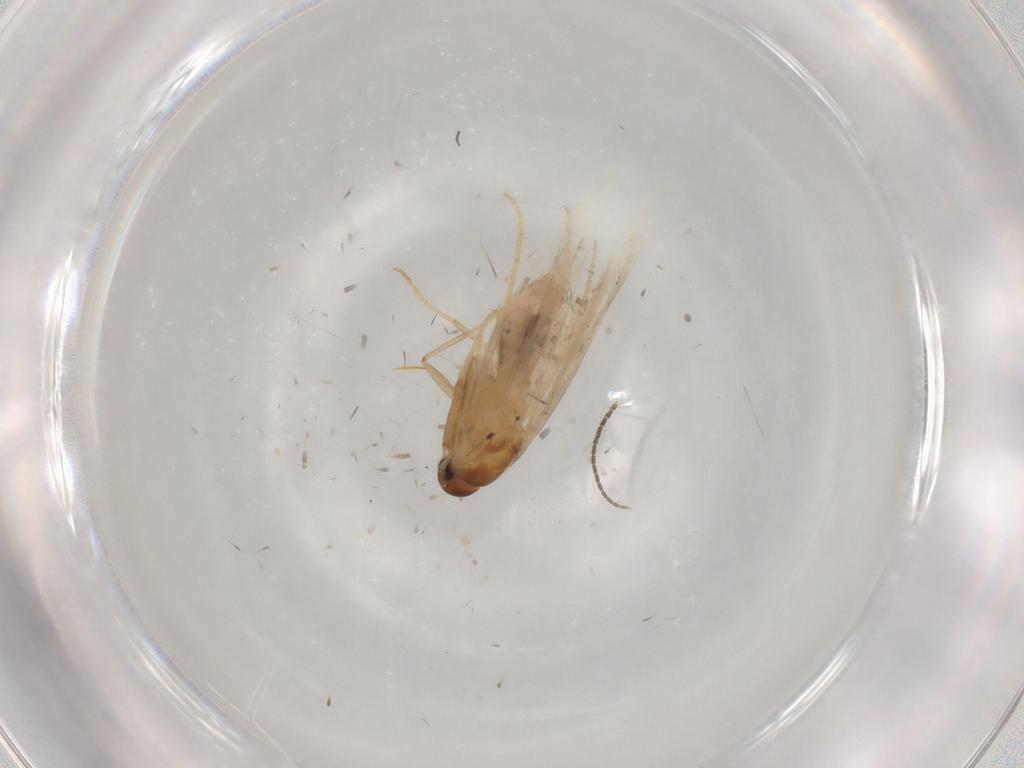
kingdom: Animalia
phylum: Arthropoda
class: Insecta
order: Lepidoptera
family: Gelechiidae
